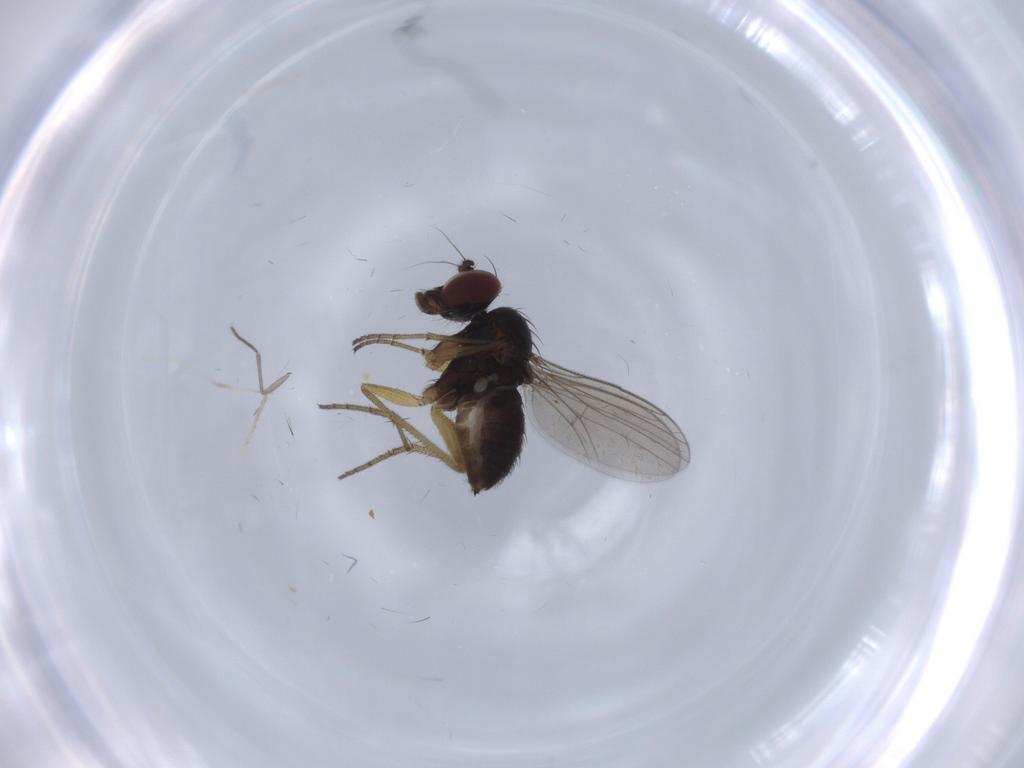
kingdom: Animalia
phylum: Arthropoda
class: Insecta
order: Diptera
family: Dolichopodidae
